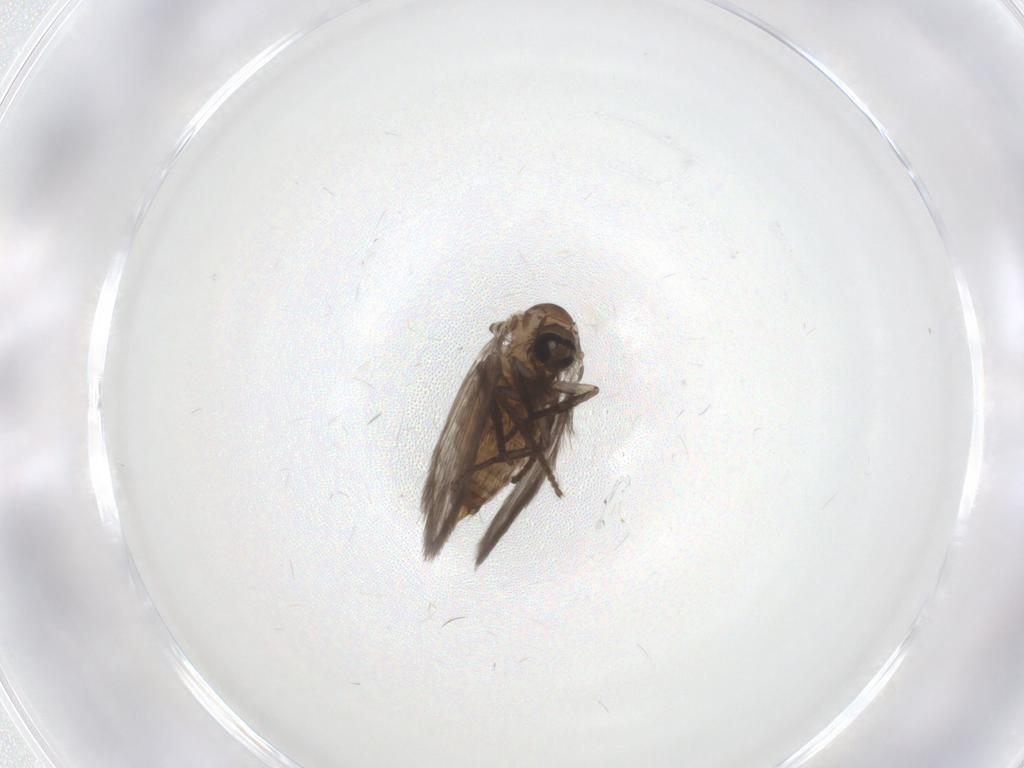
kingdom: Animalia
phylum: Arthropoda
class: Insecta
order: Diptera
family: Psychodidae
